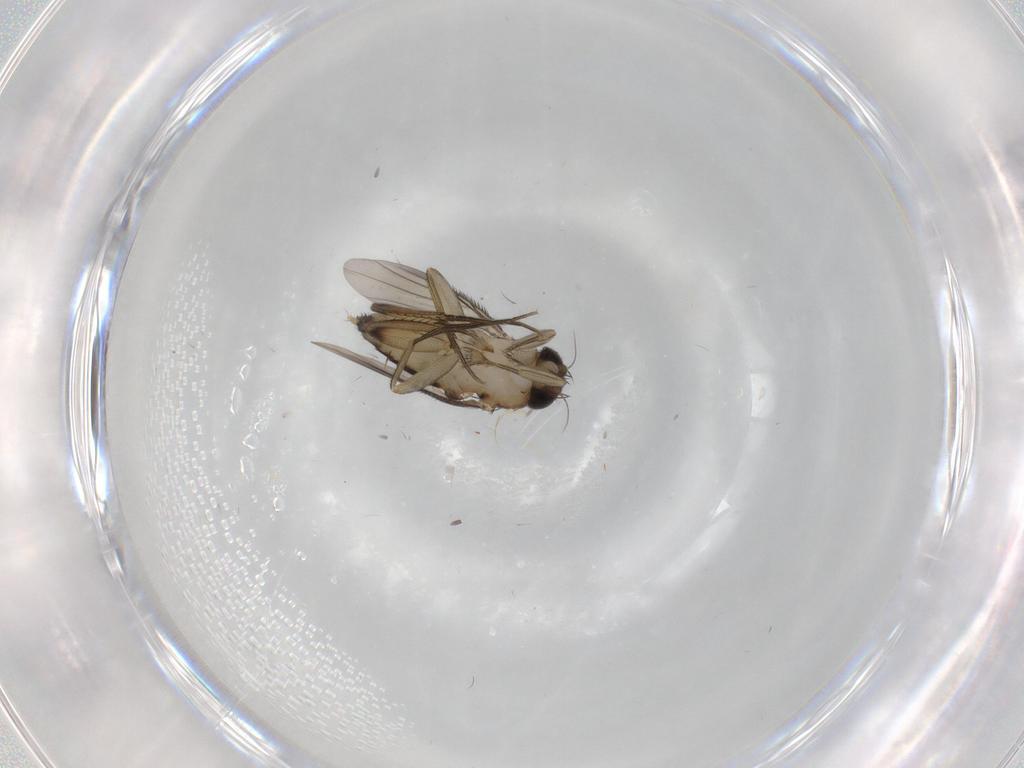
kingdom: Animalia
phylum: Arthropoda
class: Insecta
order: Diptera
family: Phoridae
